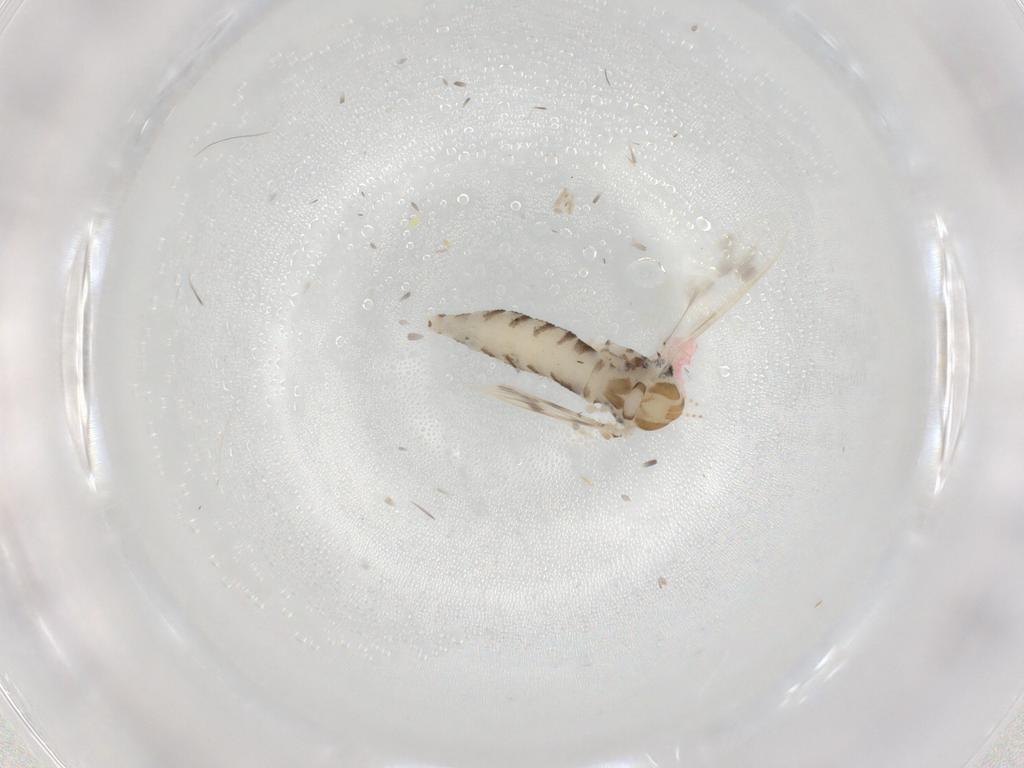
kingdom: Animalia
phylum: Arthropoda
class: Insecta
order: Diptera
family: Corethrellidae
